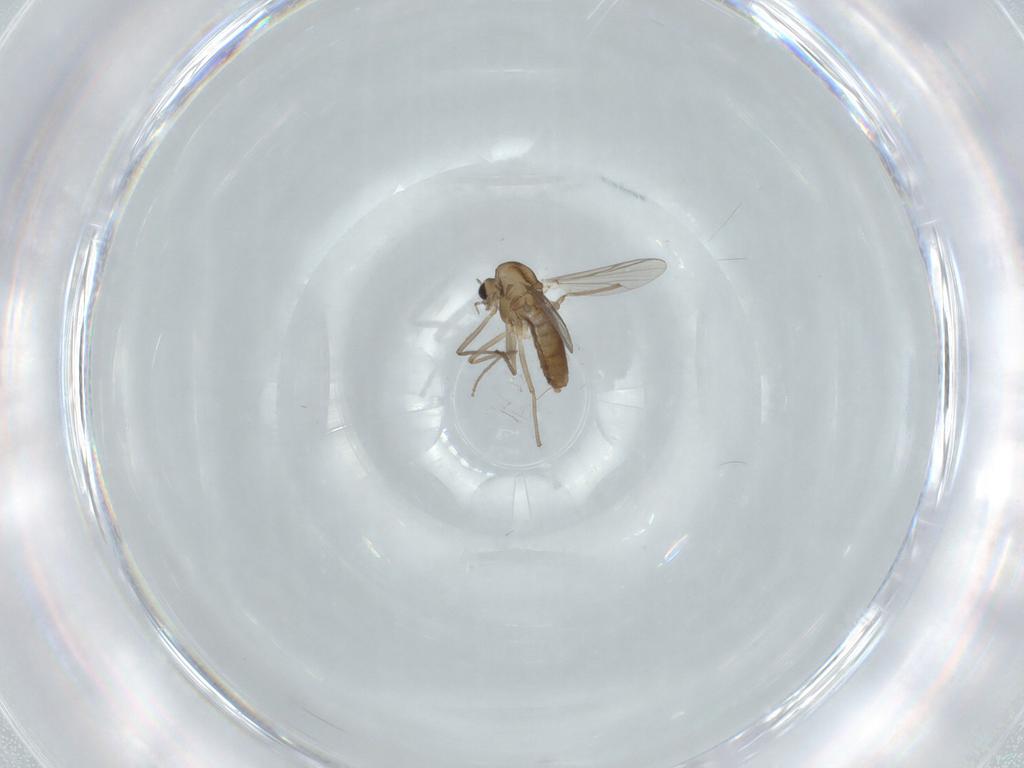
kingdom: Animalia
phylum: Arthropoda
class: Insecta
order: Diptera
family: Chironomidae
